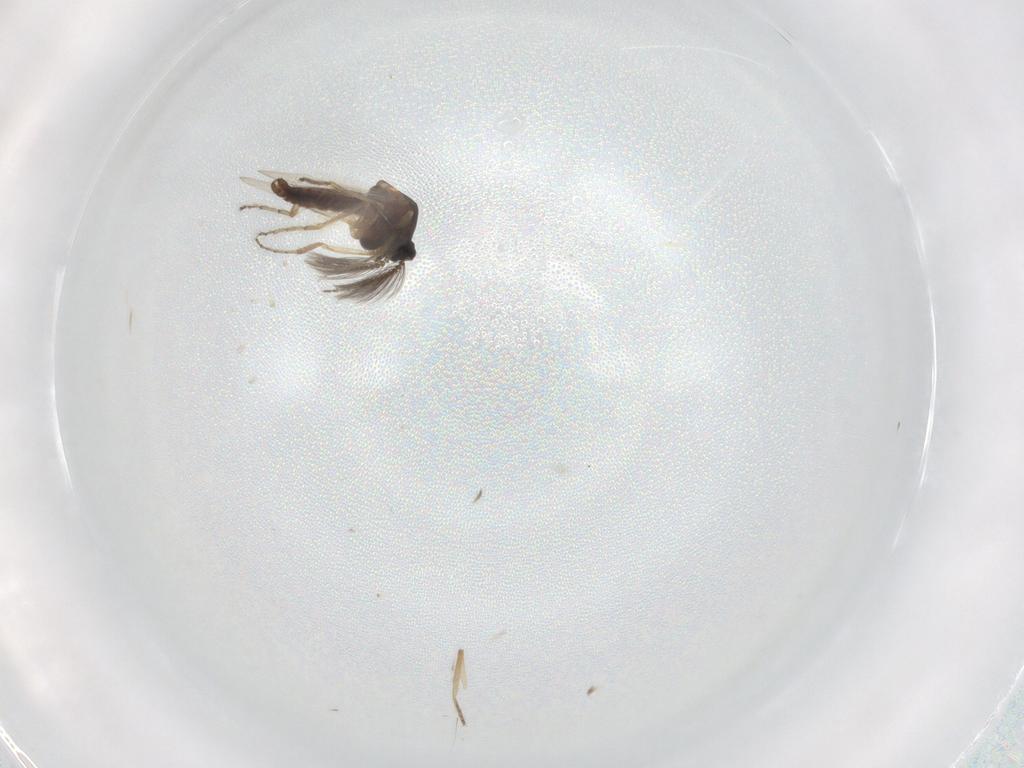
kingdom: Animalia
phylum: Arthropoda
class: Insecta
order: Diptera
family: Ceratopogonidae
